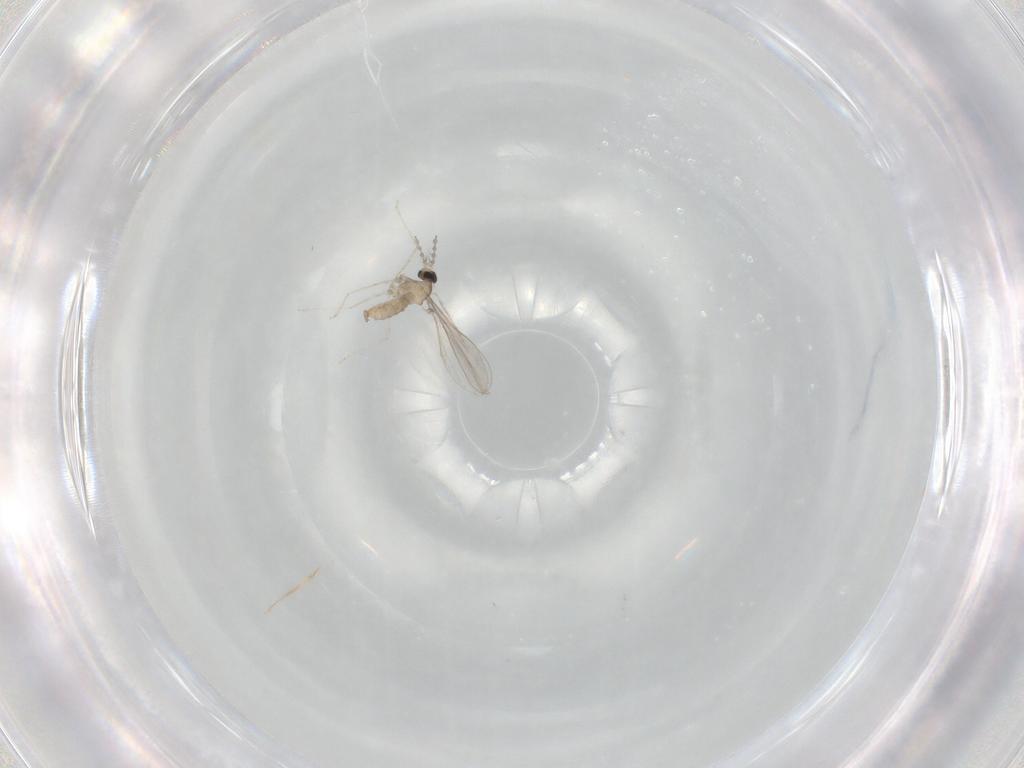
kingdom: Animalia
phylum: Arthropoda
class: Insecta
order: Diptera
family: Cecidomyiidae
